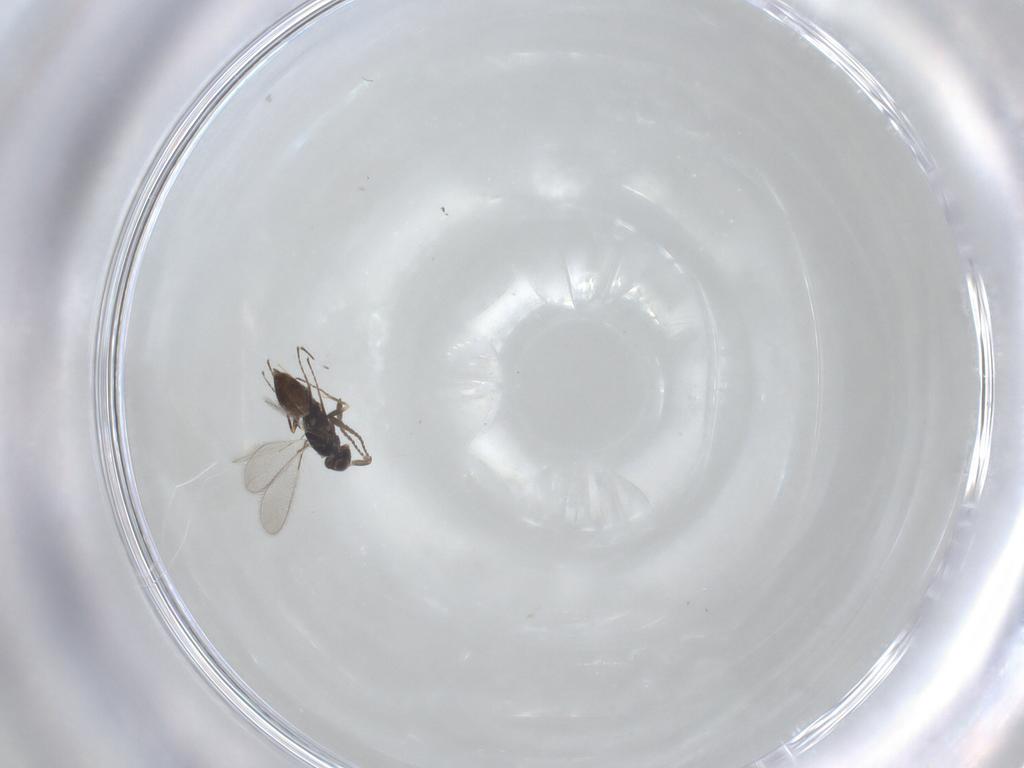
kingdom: Animalia
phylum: Arthropoda
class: Insecta
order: Hymenoptera
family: Mymaridae
